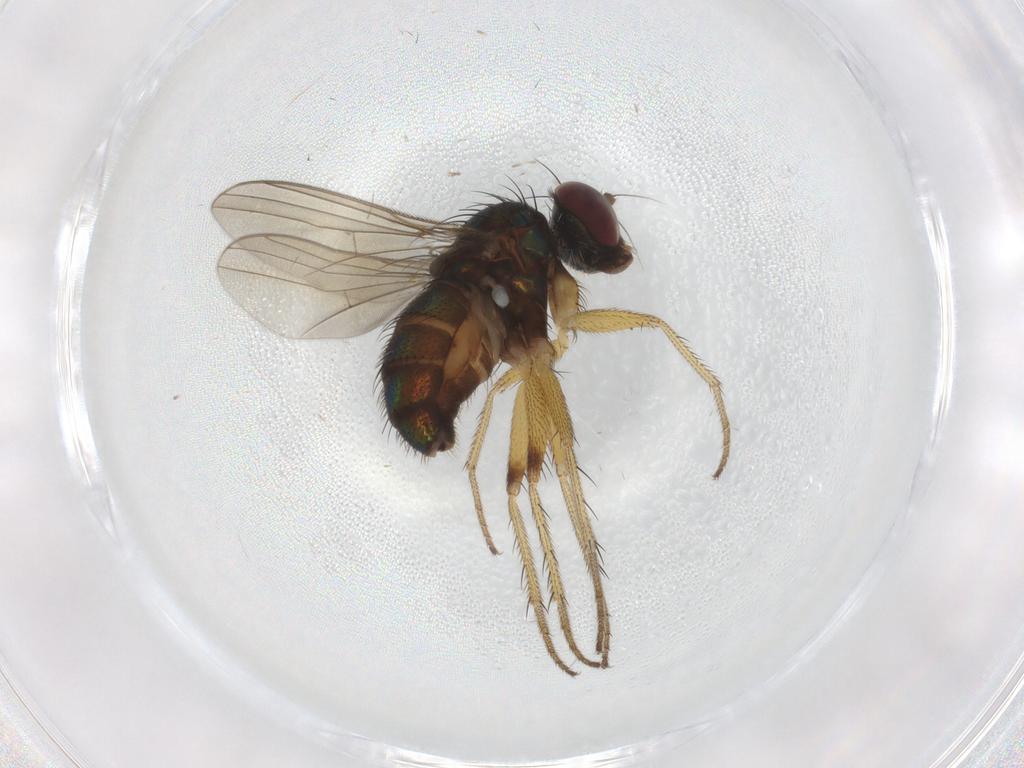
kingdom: Animalia
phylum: Arthropoda
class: Insecta
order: Diptera
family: Dolichopodidae
